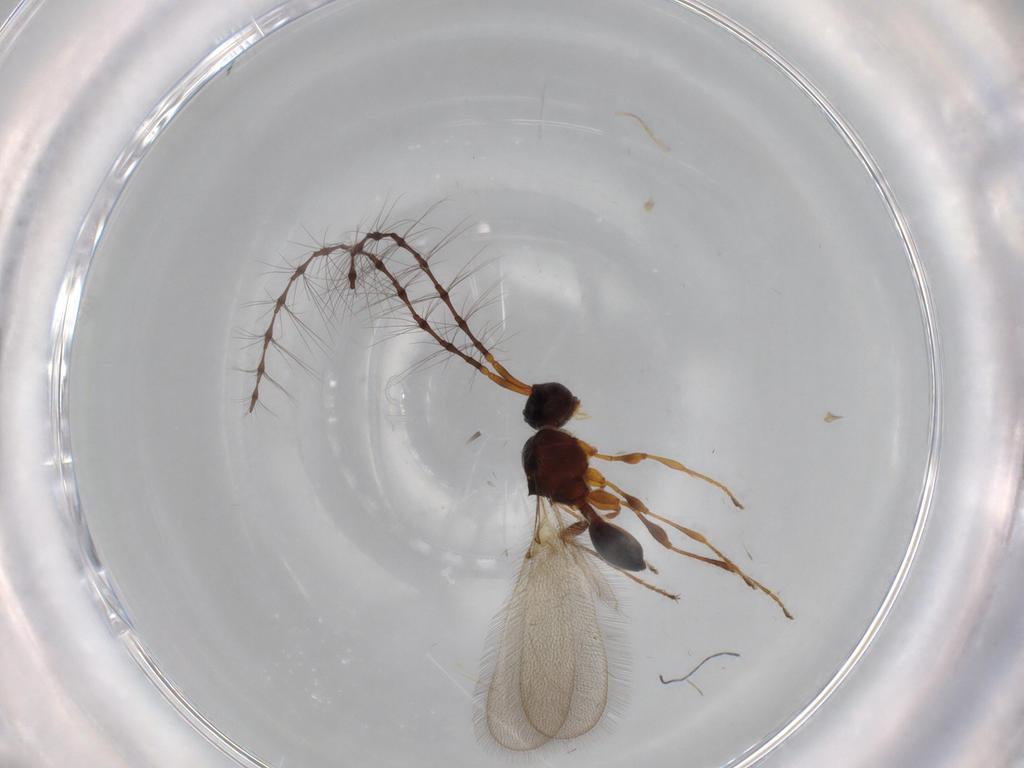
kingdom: Animalia
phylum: Arthropoda
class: Insecta
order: Hymenoptera
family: Diapriidae
